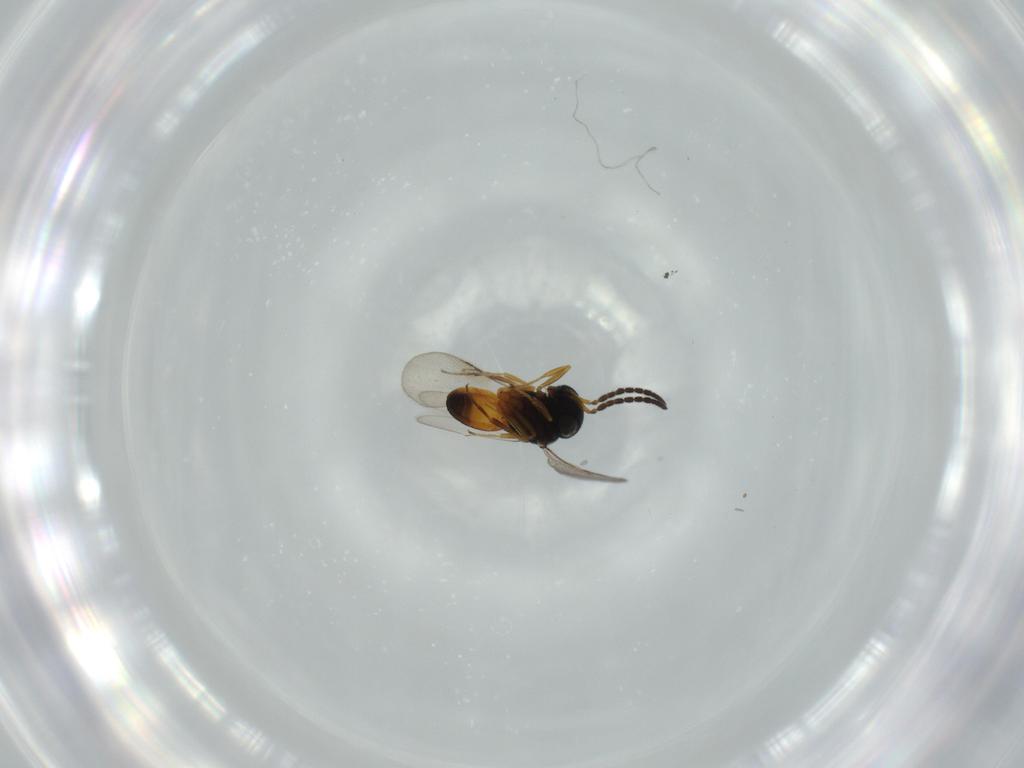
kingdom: Animalia
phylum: Arthropoda
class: Insecta
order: Hymenoptera
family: Scelionidae
